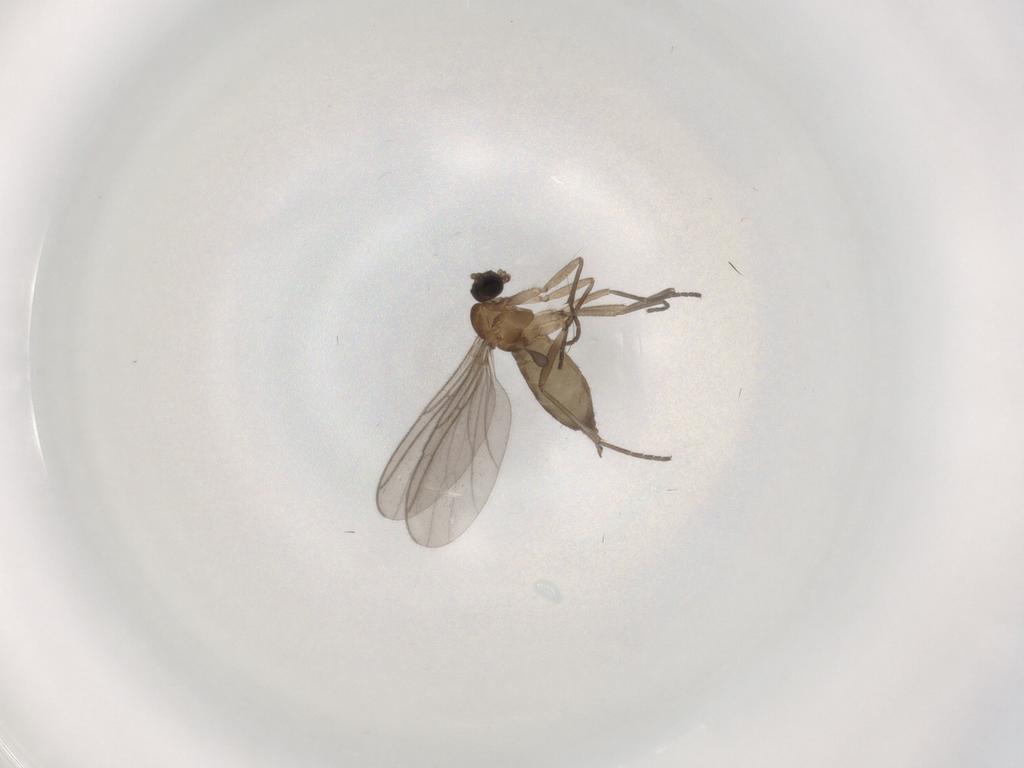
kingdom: Animalia
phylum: Arthropoda
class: Insecta
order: Diptera
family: Sciaridae
